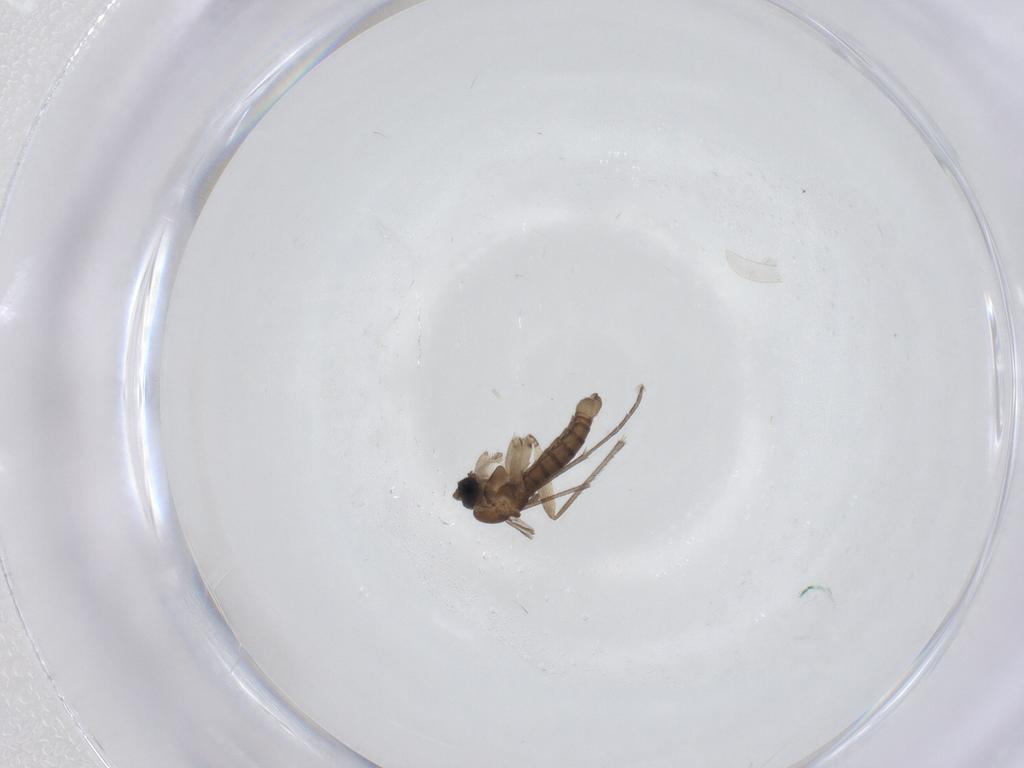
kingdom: Animalia
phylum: Arthropoda
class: Insecta
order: Diptera
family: Sciaridae
